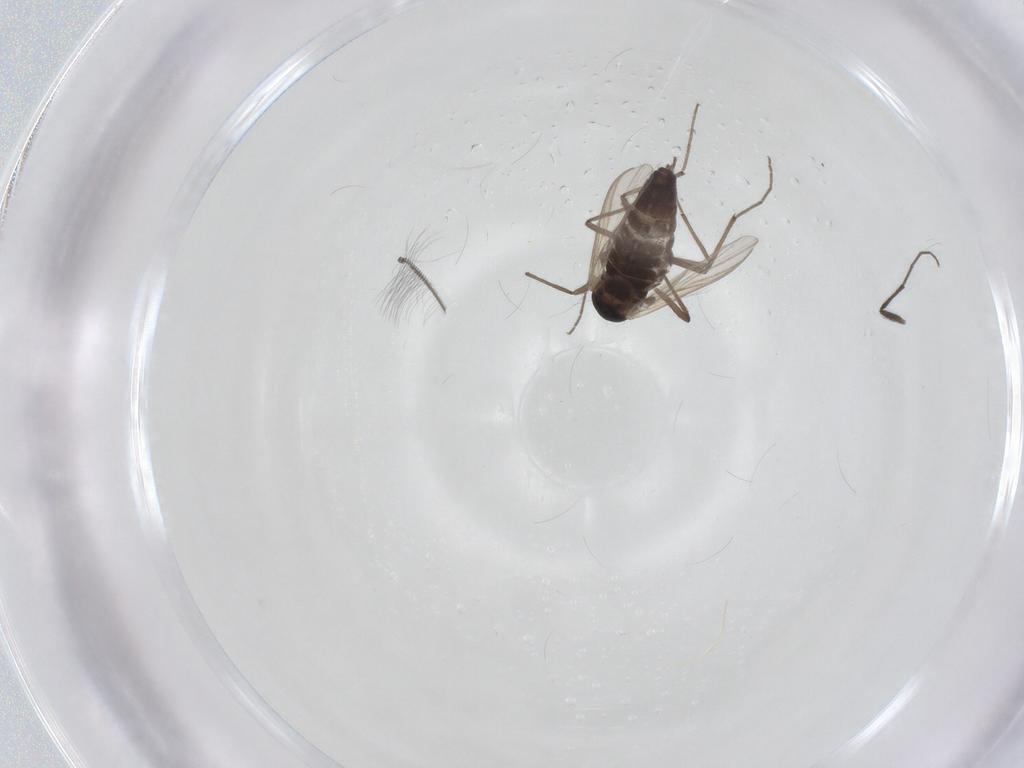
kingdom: Animalia
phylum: Arthropoda
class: Insecta
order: Diptera
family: Chironomidae
